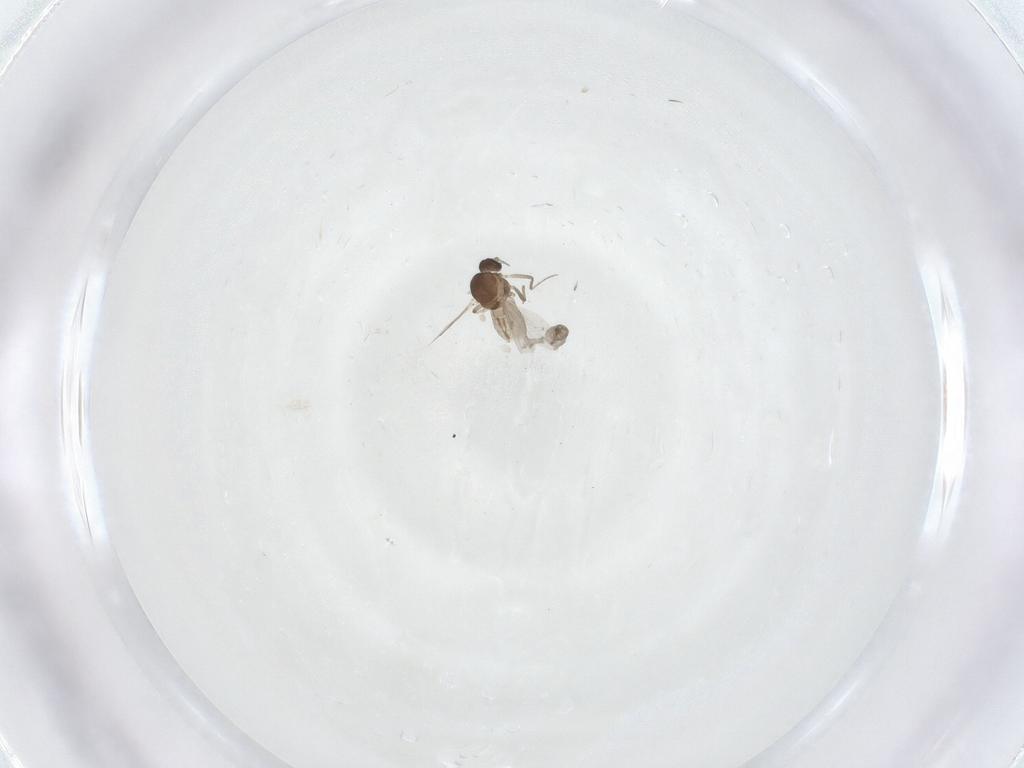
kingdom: Animalia
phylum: Arthropoda
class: Insecta
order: Diptera
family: Ceratopogonidae
